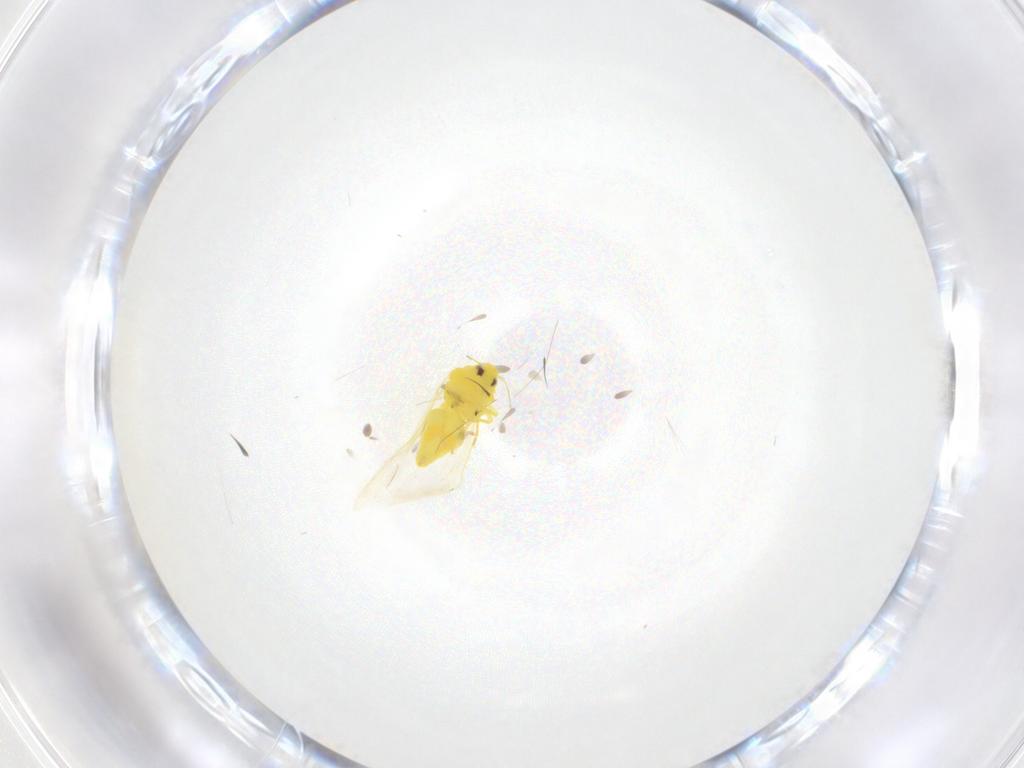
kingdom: Animalia
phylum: Arthropoda
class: Insecta
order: Hemiptera
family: Aleyrodidae
